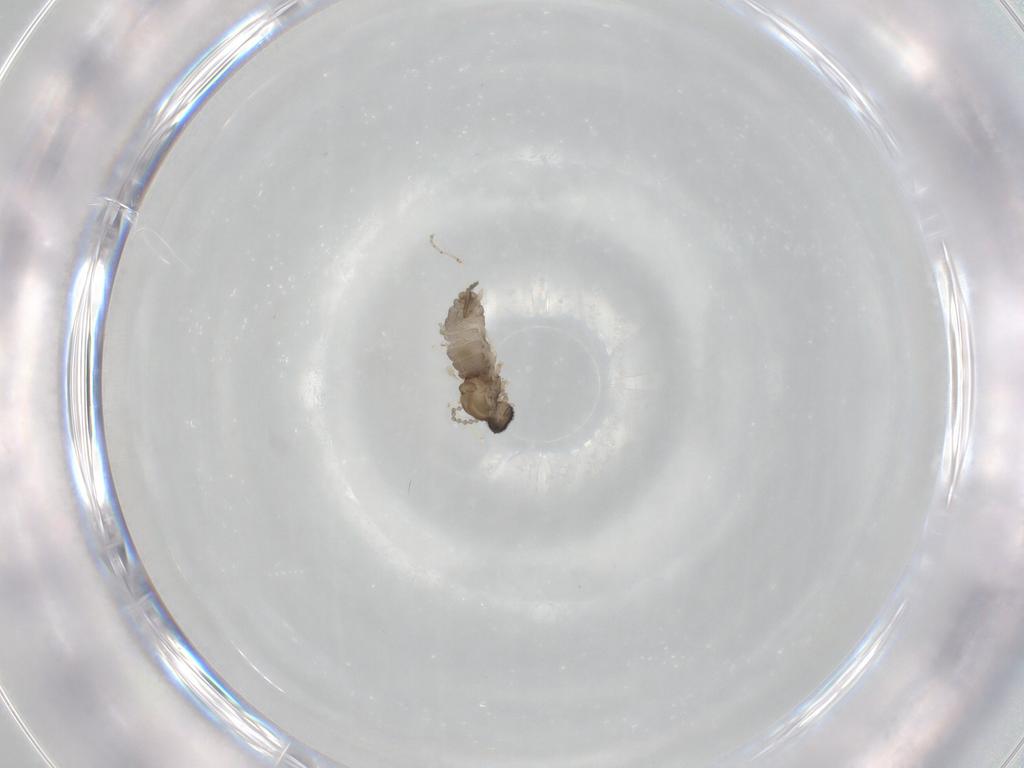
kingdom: Animalia
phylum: Arthropoda
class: Insecta
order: Diptera
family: Cecidomyiidae
